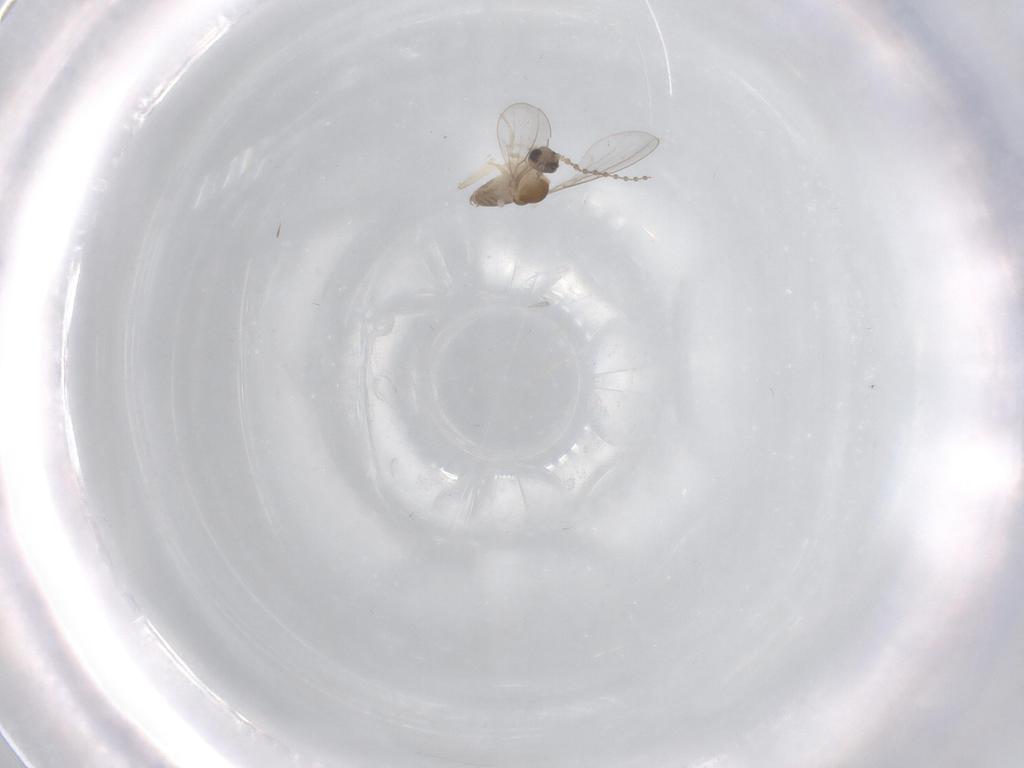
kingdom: Animalia
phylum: Arthropoda
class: Insecta
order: Diptera
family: Cecidomyiidae
